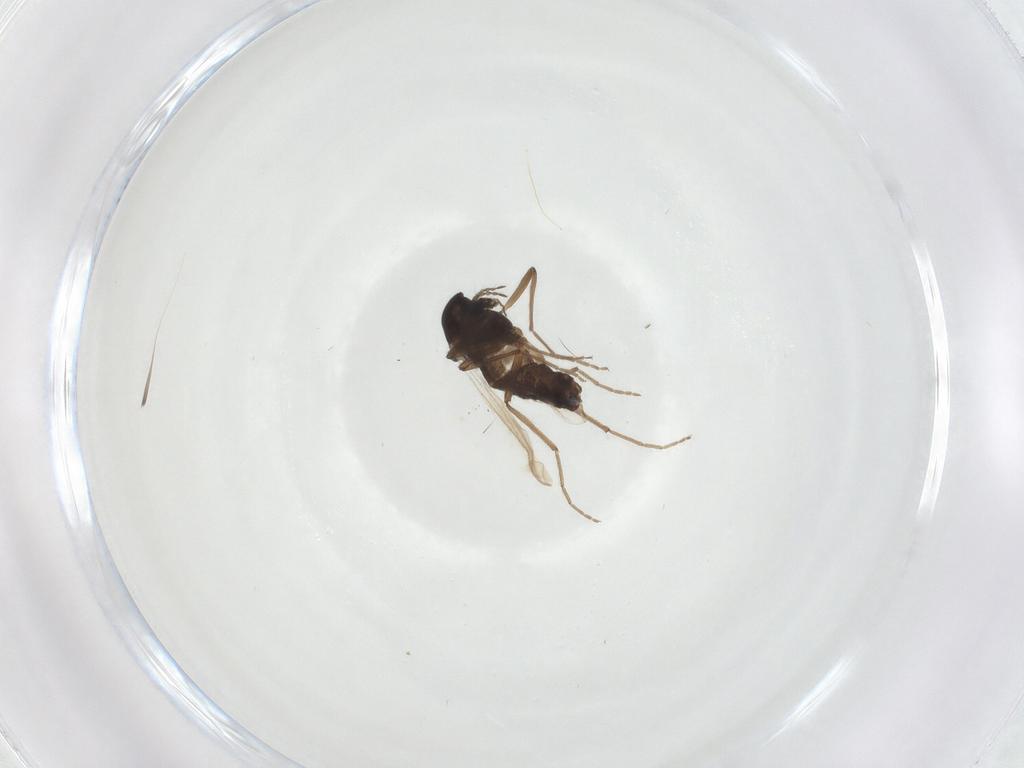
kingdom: Animalia
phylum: Arthropoda
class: Insecta
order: Diptera
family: Chironomidae
